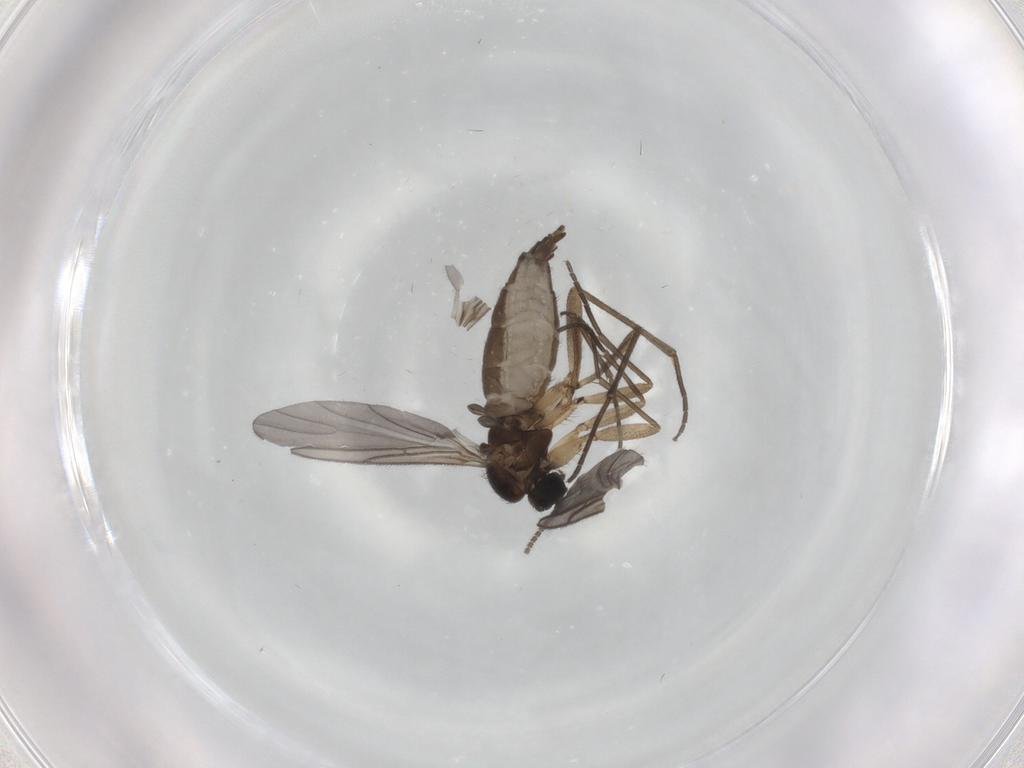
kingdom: Animalia
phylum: Arthropoda
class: Insecta
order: Diptera
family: Sciaridae
